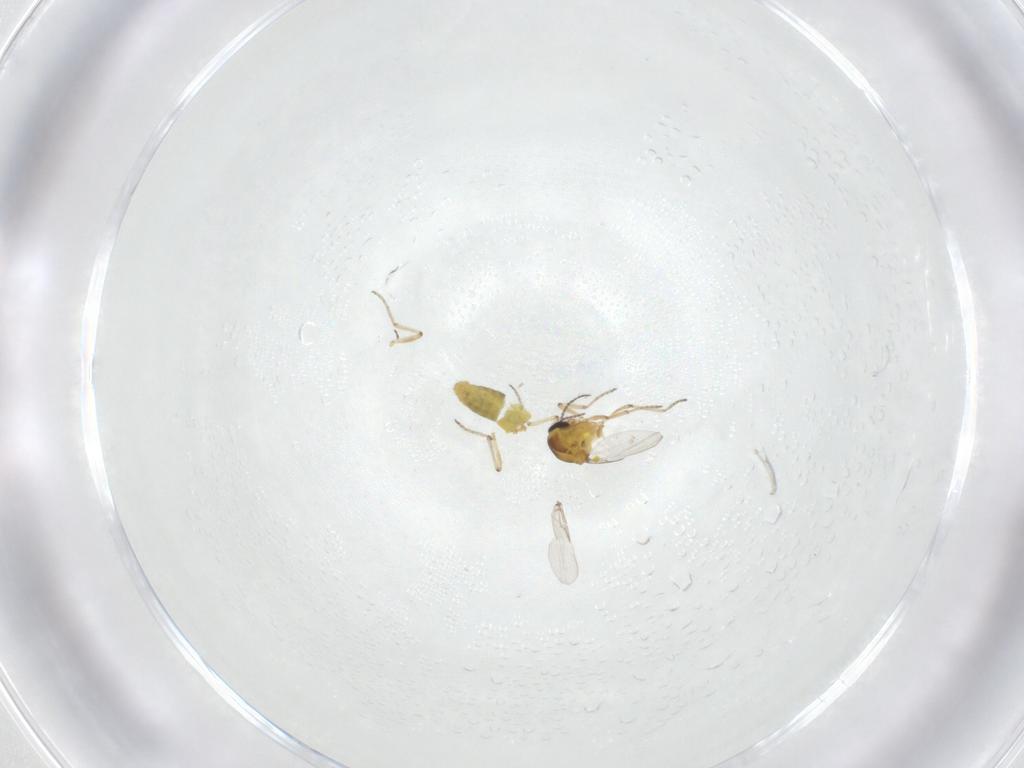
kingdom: Animalia
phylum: Arthropoda
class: Insecta
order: Diptera
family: Ceratopogonidae
